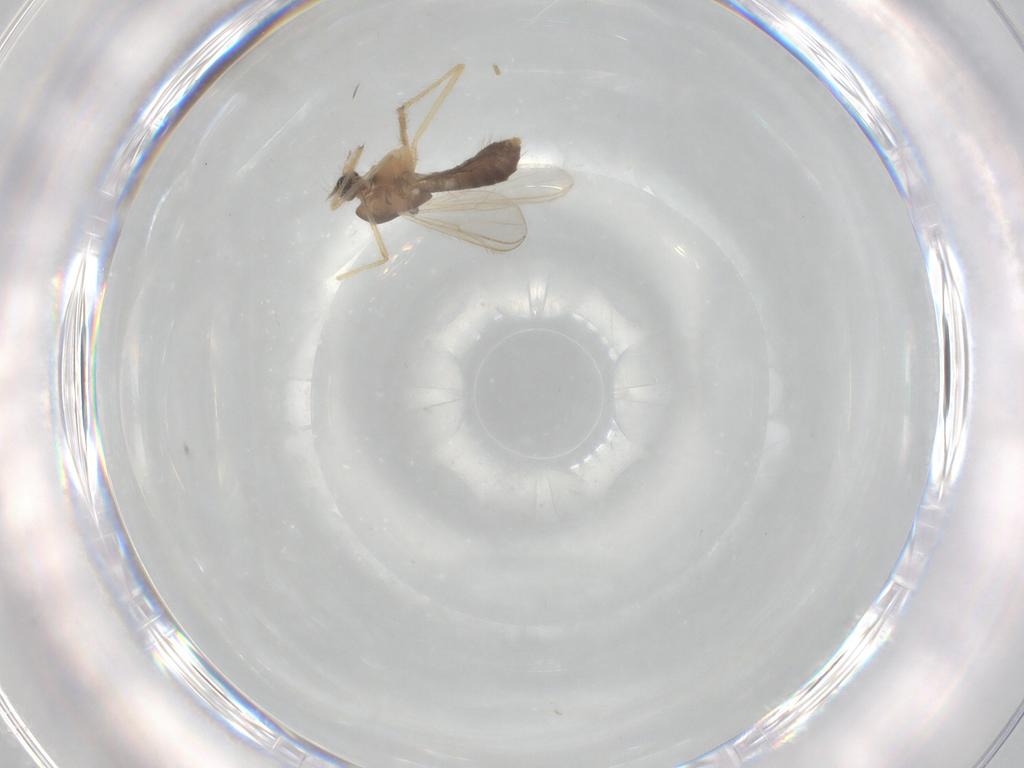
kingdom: Animalia
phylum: Arthropoda
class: Insecta
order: Diptera
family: Chironomidae
